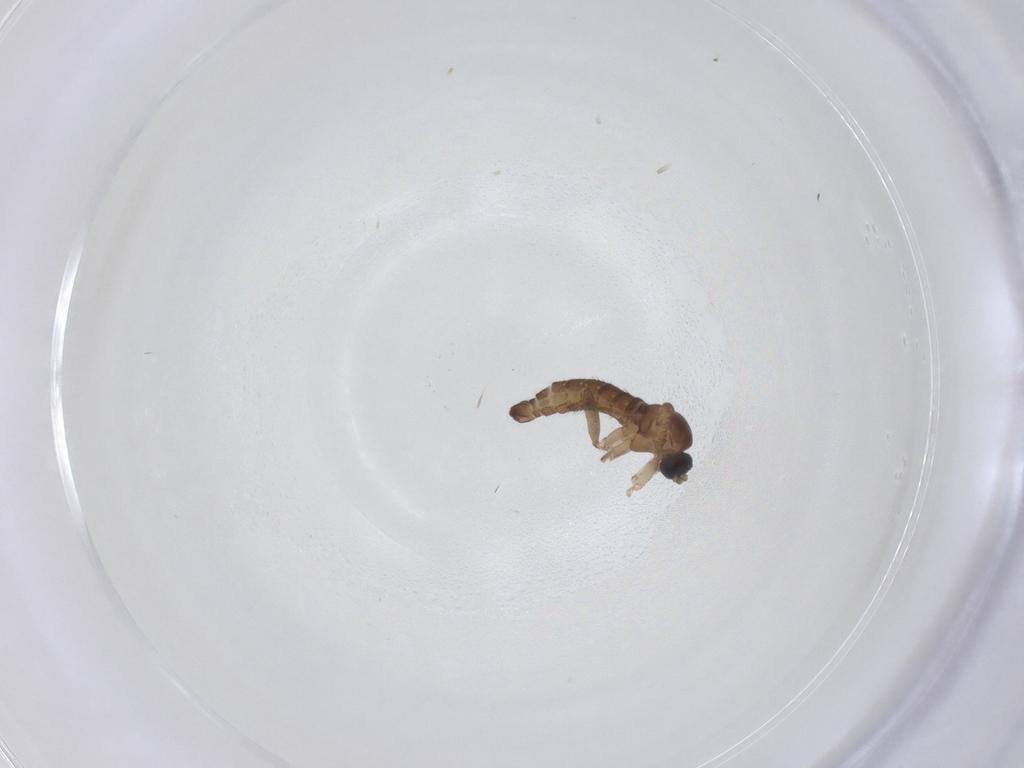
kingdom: Animalia
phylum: Arthropoda
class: Insecta
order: Diptera
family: Sciaridae
